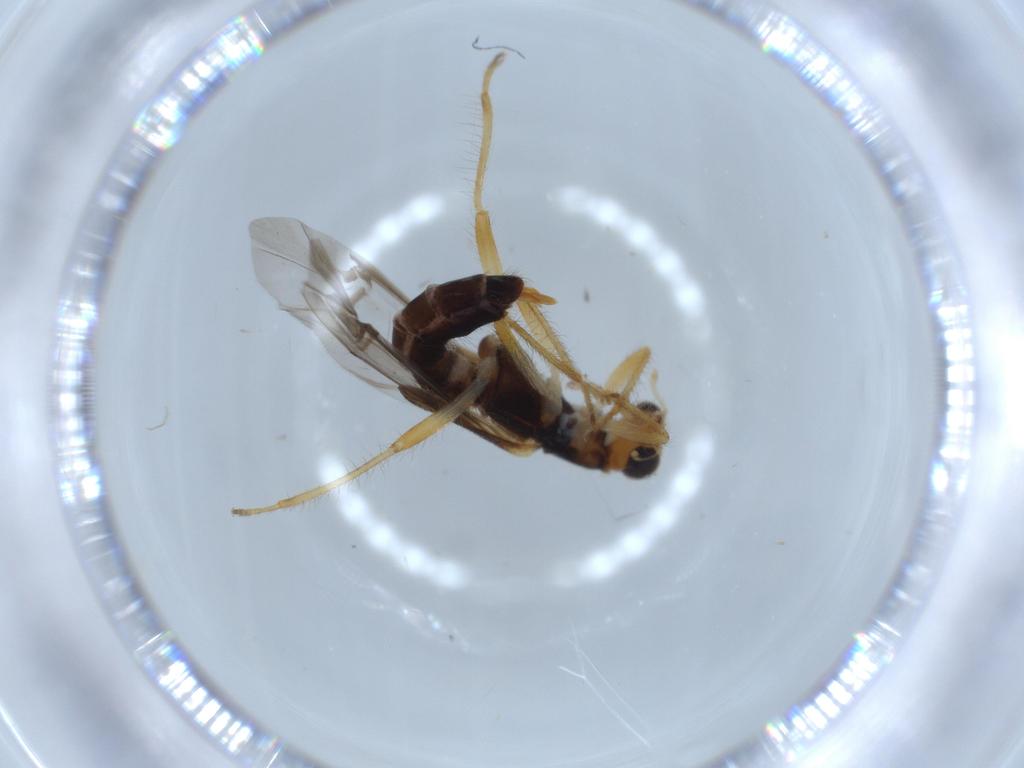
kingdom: Animalia
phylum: Arthropoda
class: Insecta
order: Coleoptera
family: Cleridae
